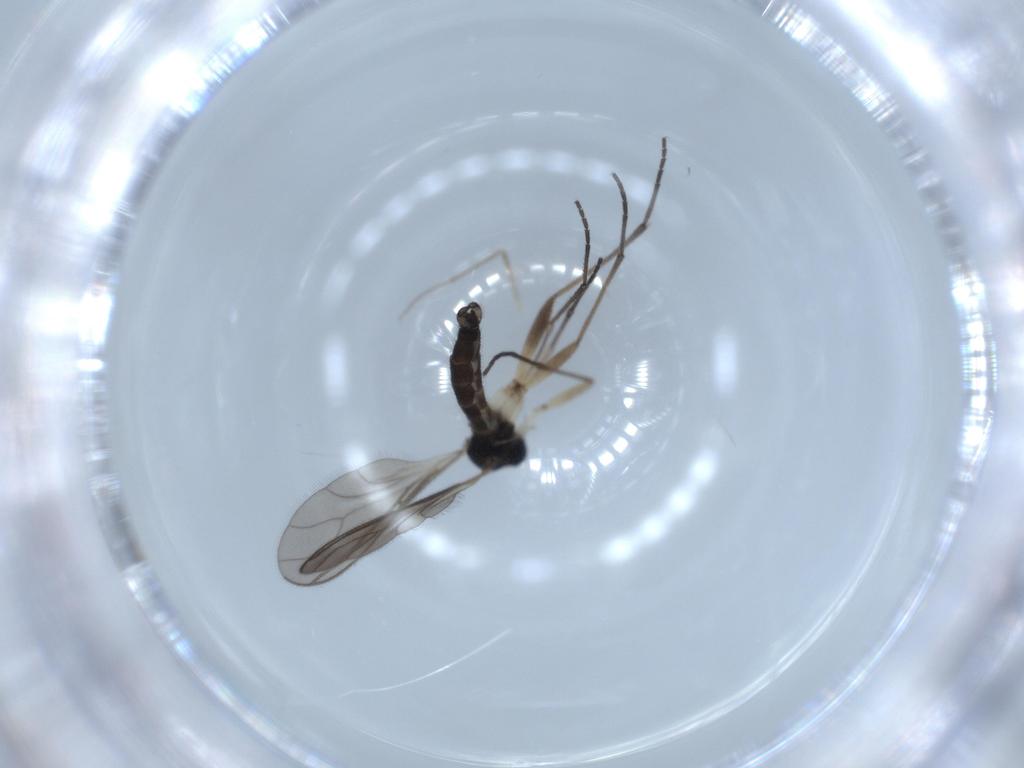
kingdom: Animalia
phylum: Arthropoda
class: Insecta
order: Diptera
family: Sciaridae
